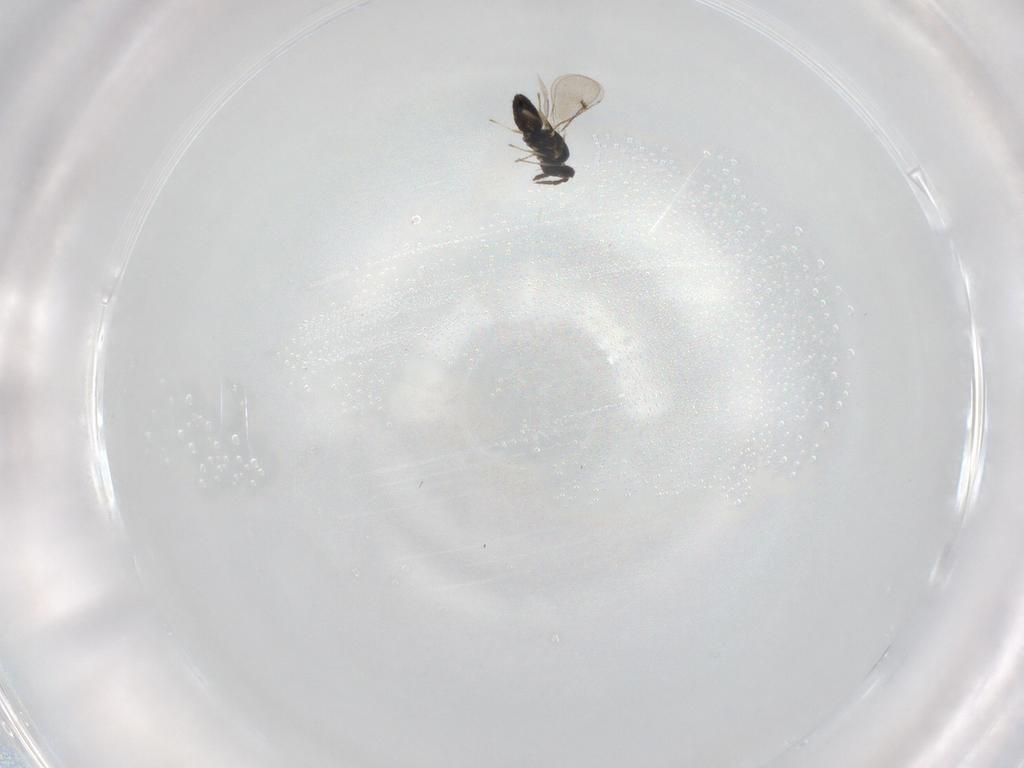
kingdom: Animalia
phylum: Arthropoda
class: Insecta
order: Hymenoptera
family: Eulophidae
